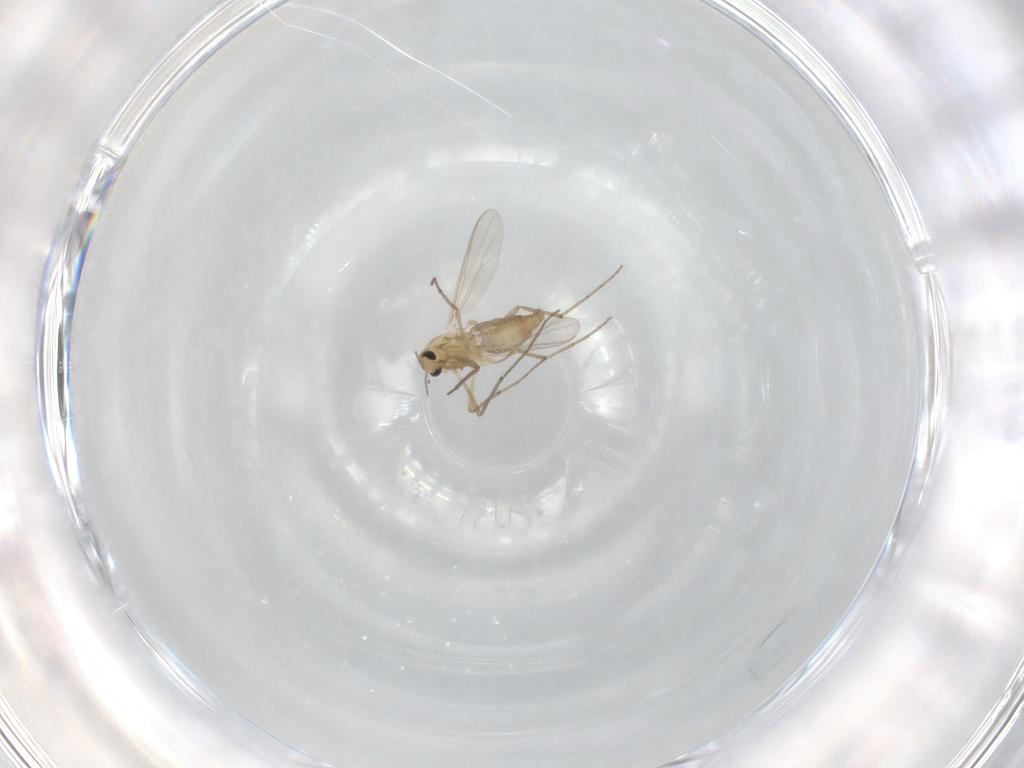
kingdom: Animalia
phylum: Arthropoda
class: Insecta
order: Diptera
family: Chironomidae
